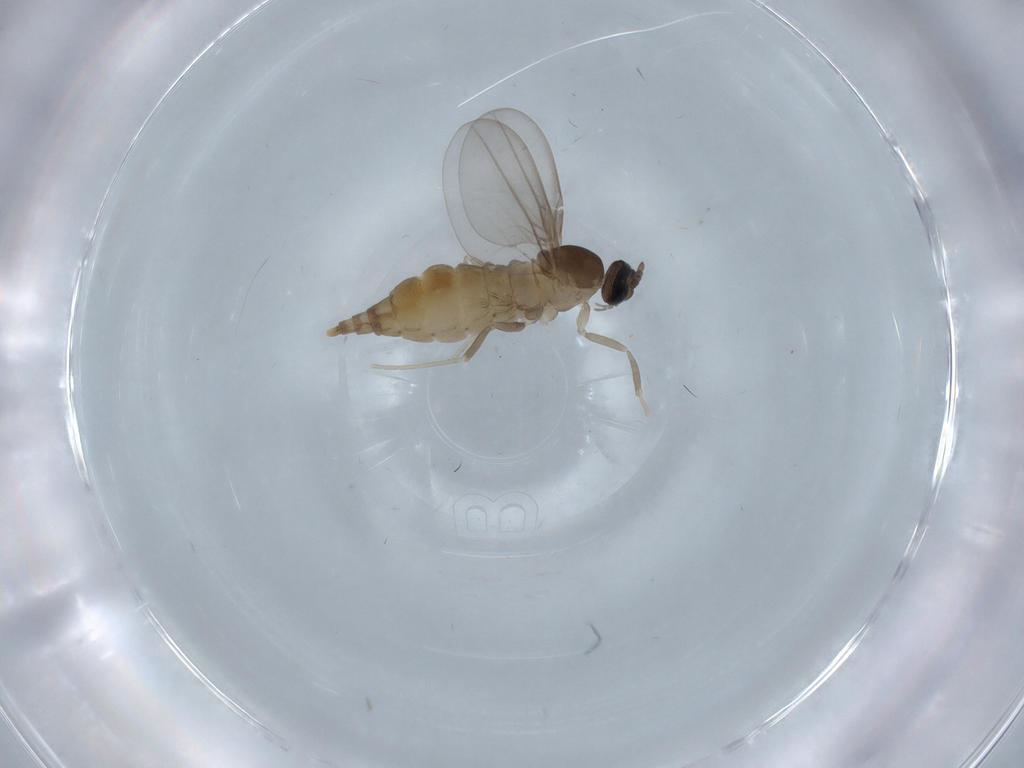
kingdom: Animalia
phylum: Arthropoda
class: Insecta
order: Diptera
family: Cecidomyiidae
